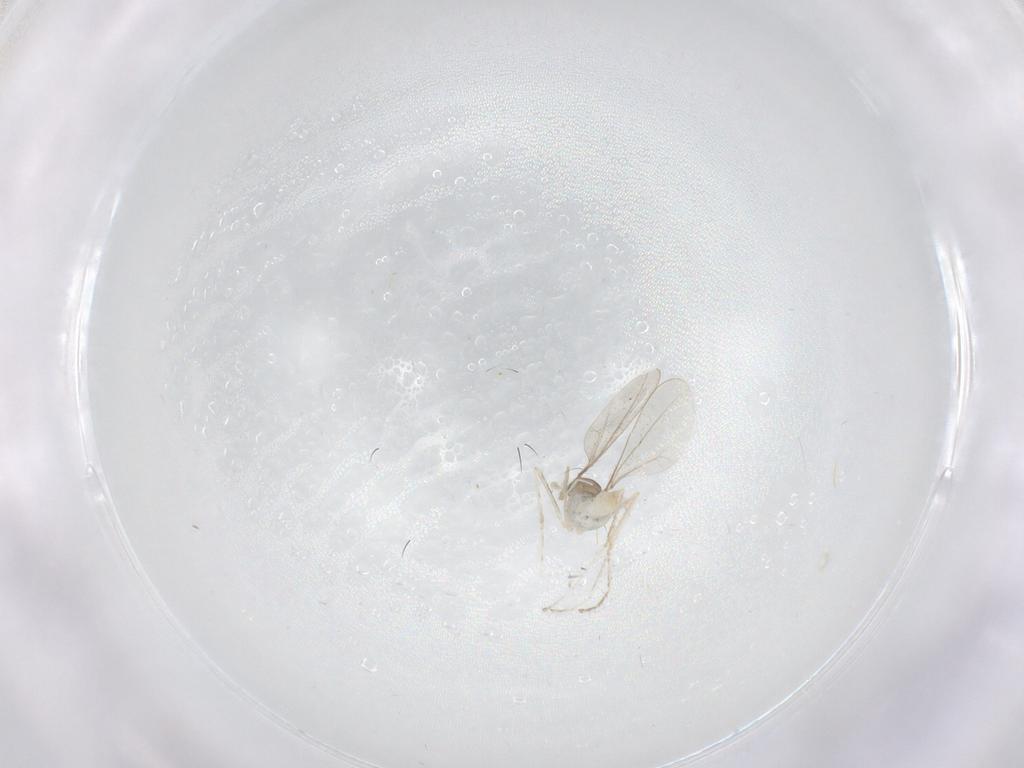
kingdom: Animalia
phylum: Arthropoda
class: Insecta
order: Diptera
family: Cecidomyiidae
